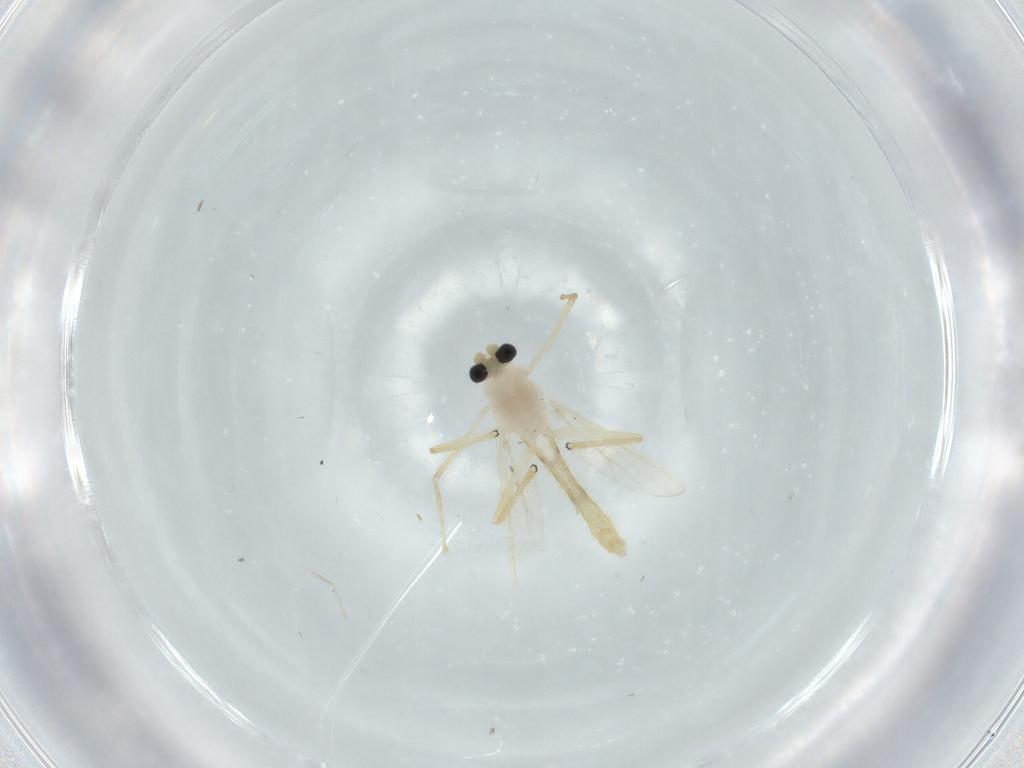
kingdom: Animalia
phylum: Arthropoda
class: Insecta
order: Diptera
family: Chironomidae
